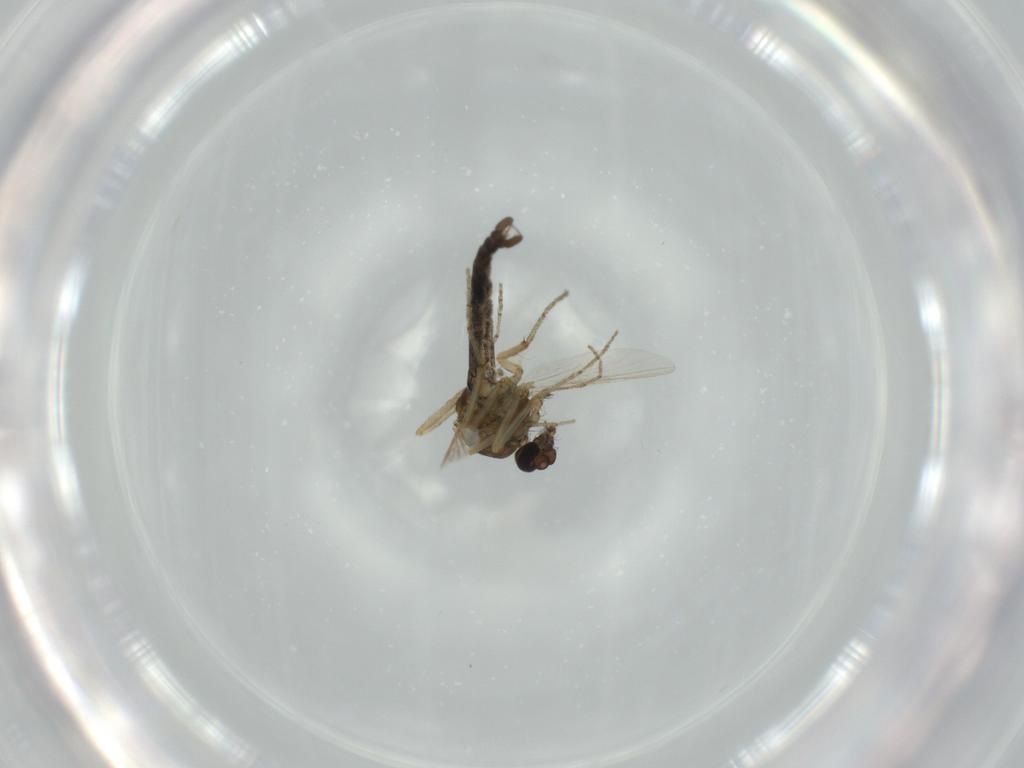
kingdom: Animalia
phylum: Arthropoda
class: Insecta
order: Diptera
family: Ceratopogonidae
